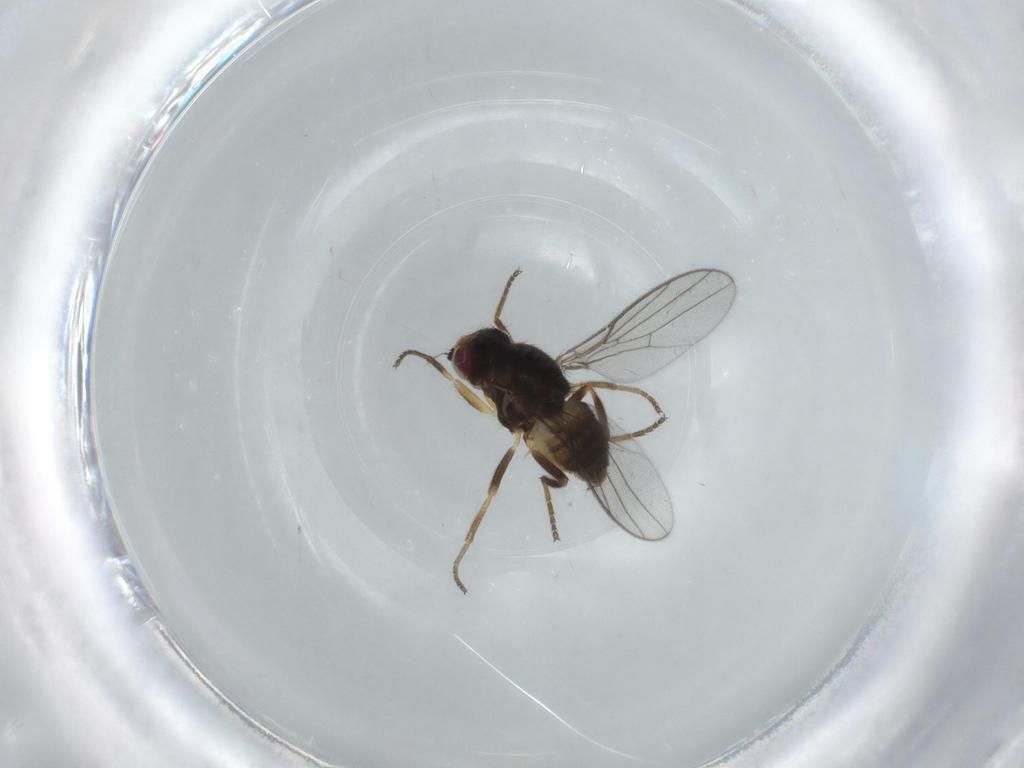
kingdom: Animalia
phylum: Arthropoda
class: Insecta
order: Diptera
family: Chloropidae
